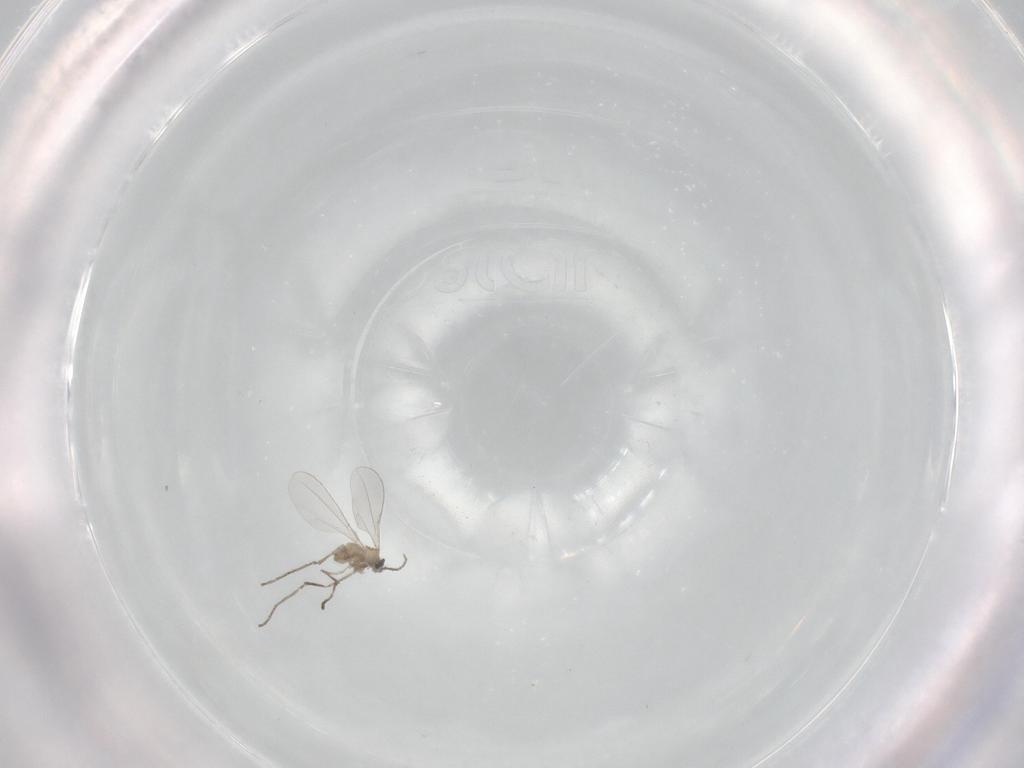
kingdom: Animalia
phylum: Arthropoda
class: Insecta
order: Diptera
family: Cecidomyiidae
